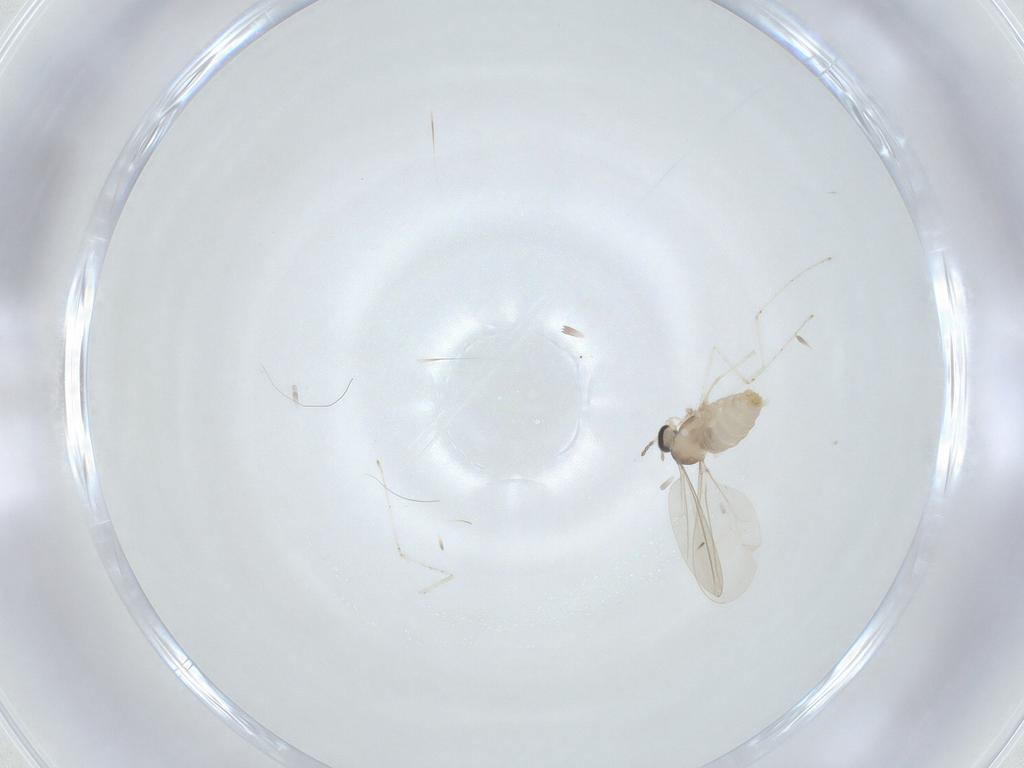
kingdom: Animalia
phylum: Arthropoda
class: Insecta
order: Diptera
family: Cecidomyiidae
